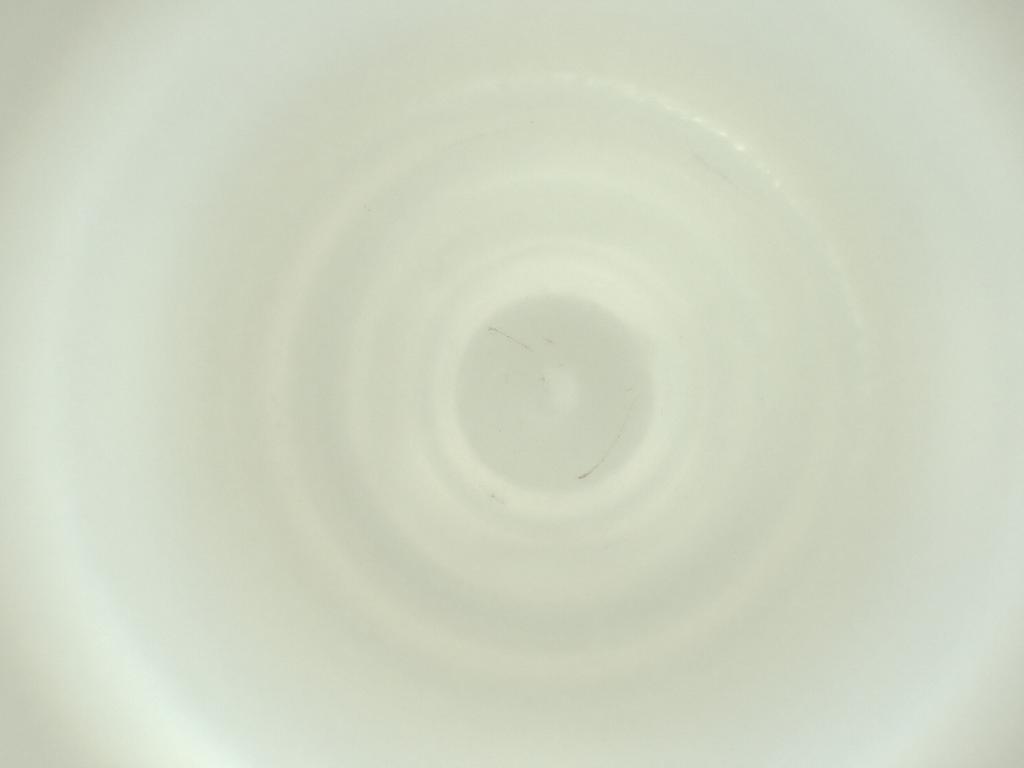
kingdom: Animalia
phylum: Arthropoda
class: Insecta
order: Diptera
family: Cecidomyiidae
